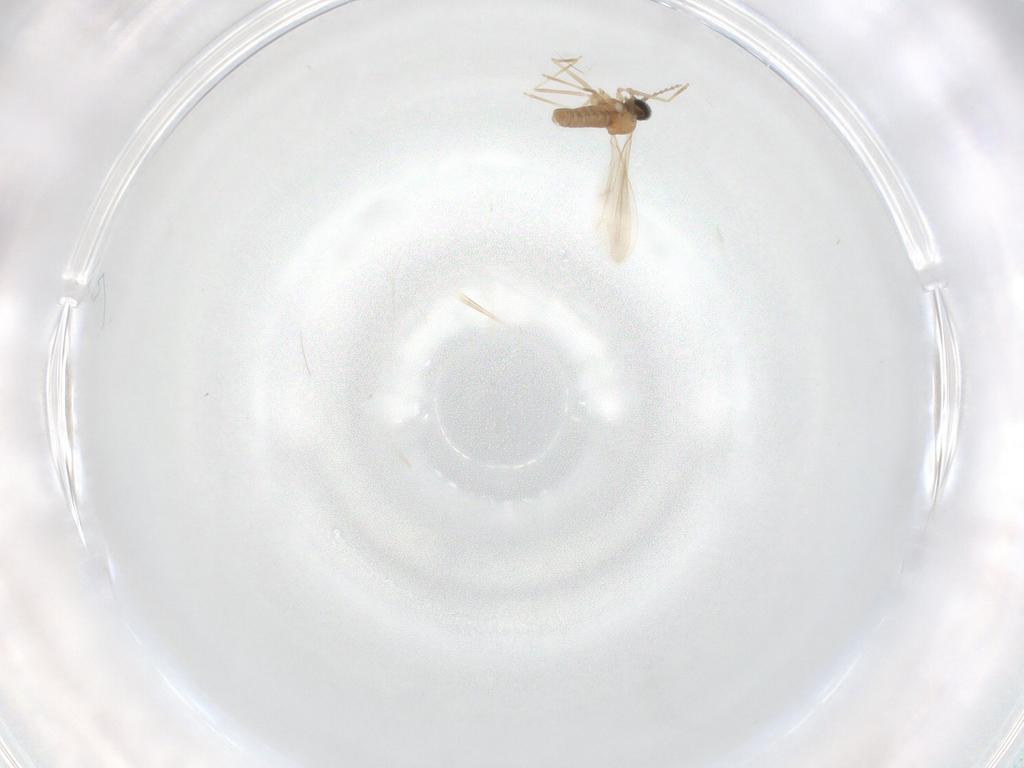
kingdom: Animalia
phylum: Arthropoda
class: Insecta
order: Diptera
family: Cecidomyiidae
